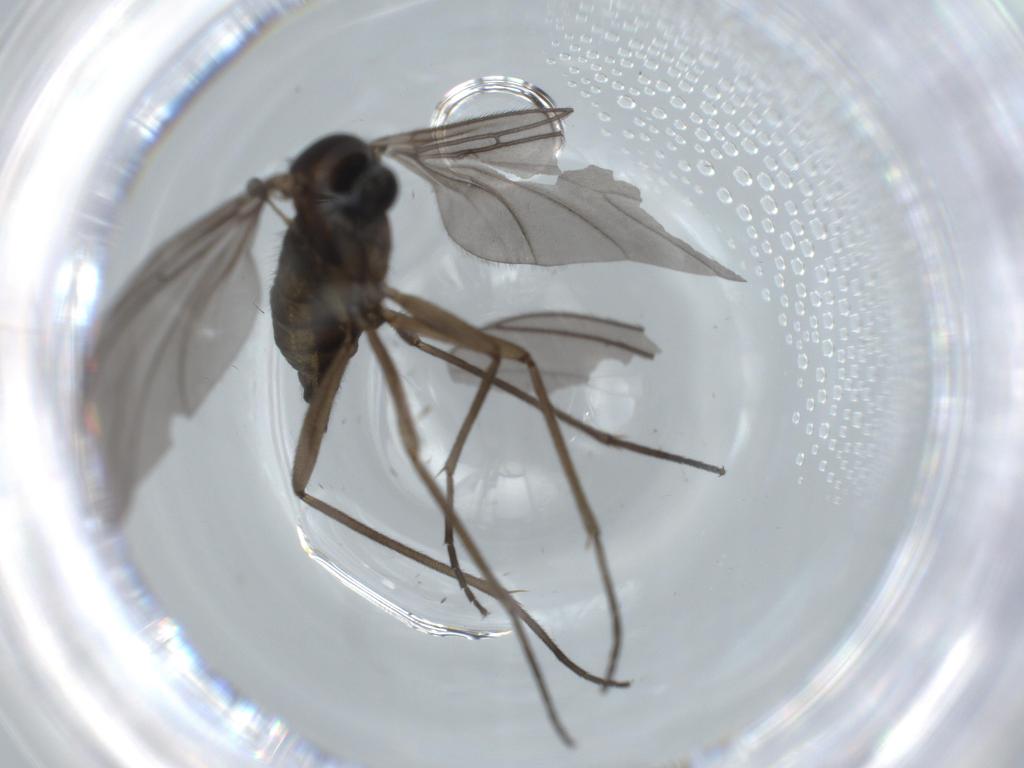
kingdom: Animalia
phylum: Arthropoda
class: Insecta
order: Diptera
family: Sciaridae
